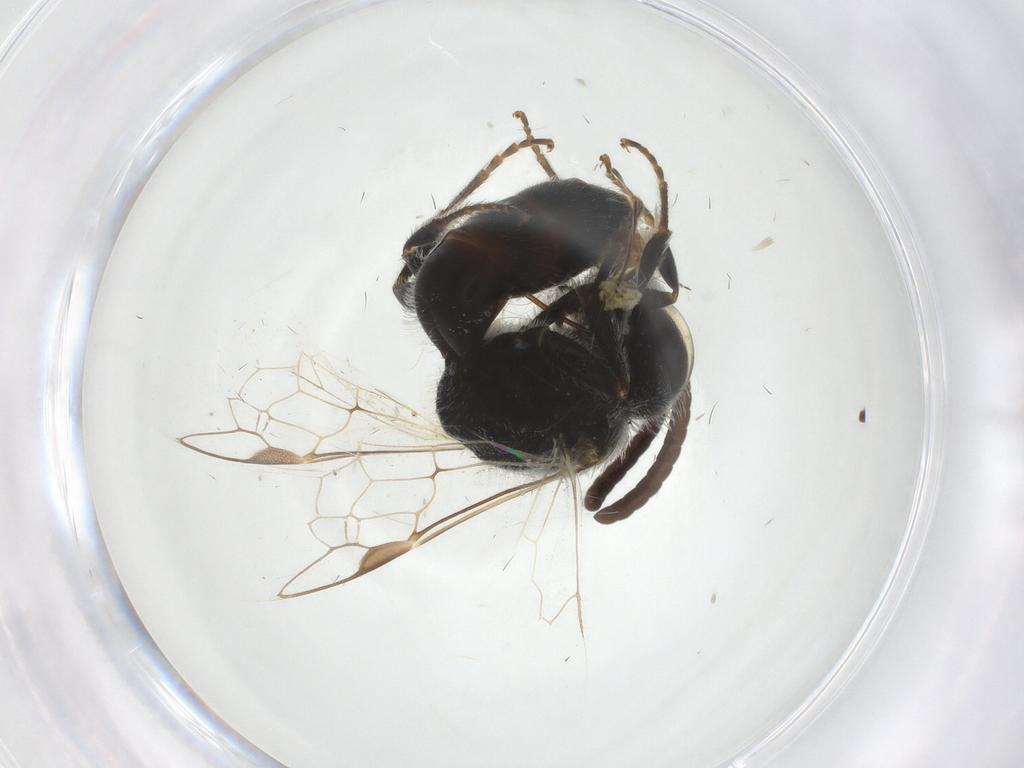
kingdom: Animalia
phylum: Arthropoda
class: Insecta
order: Hymenoptera
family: Halictidae
